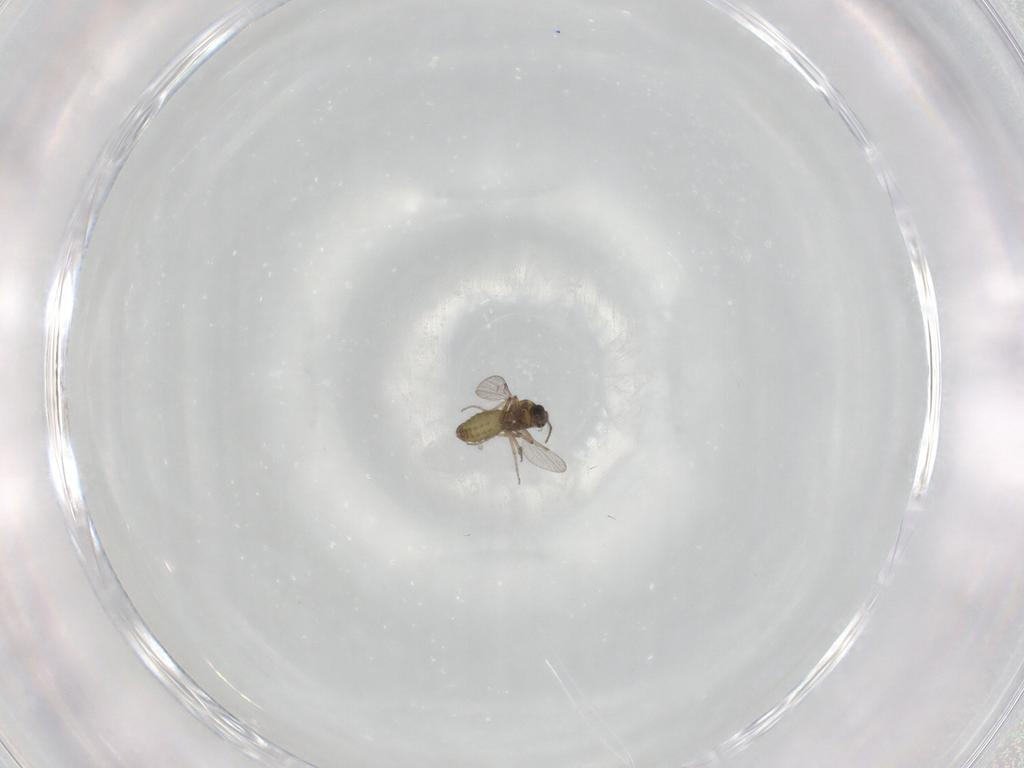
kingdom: Animalia
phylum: Arthropoda
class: Insecta
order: Diptera
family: Ceratopogonidae
